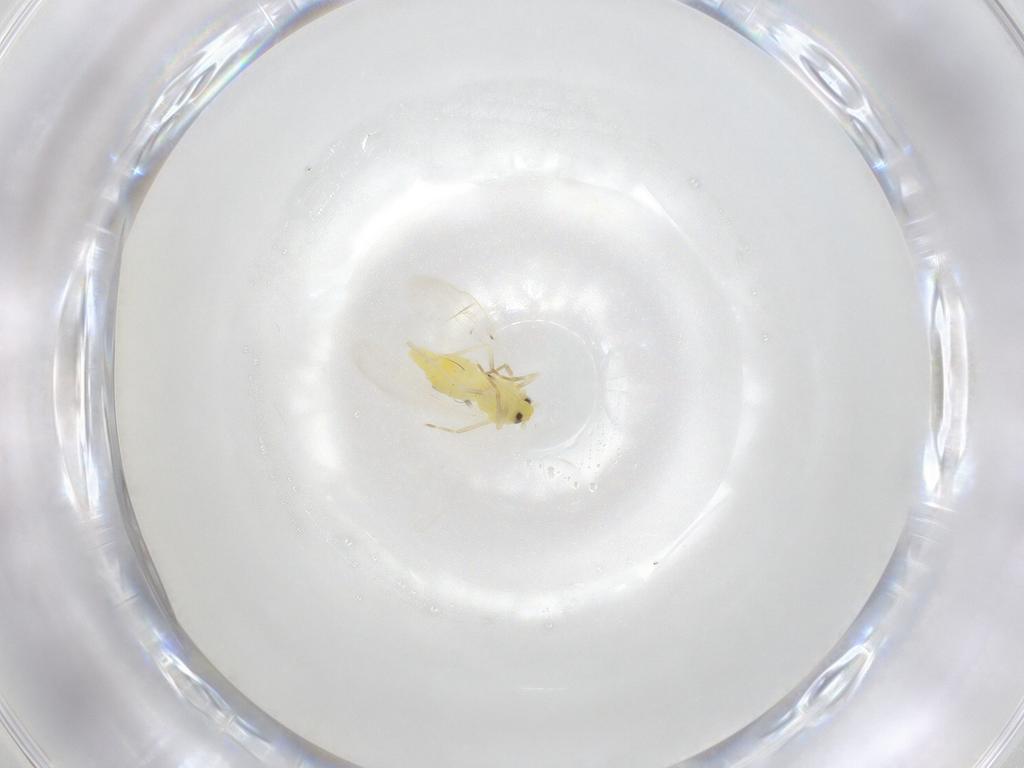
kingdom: Animalia
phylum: Arthropoda
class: Insecta
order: Hemiptera
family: Aleyrodidae
